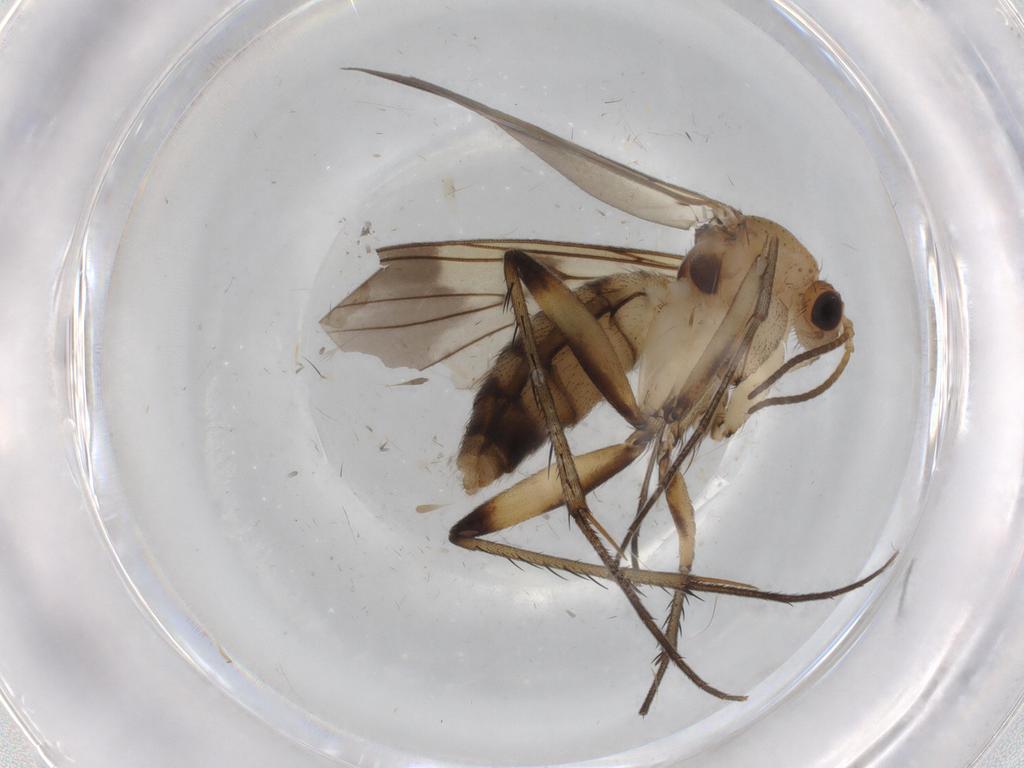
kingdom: Animalia
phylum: Arthropoda
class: Insecta
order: Diptera
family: Mycetophilidae
